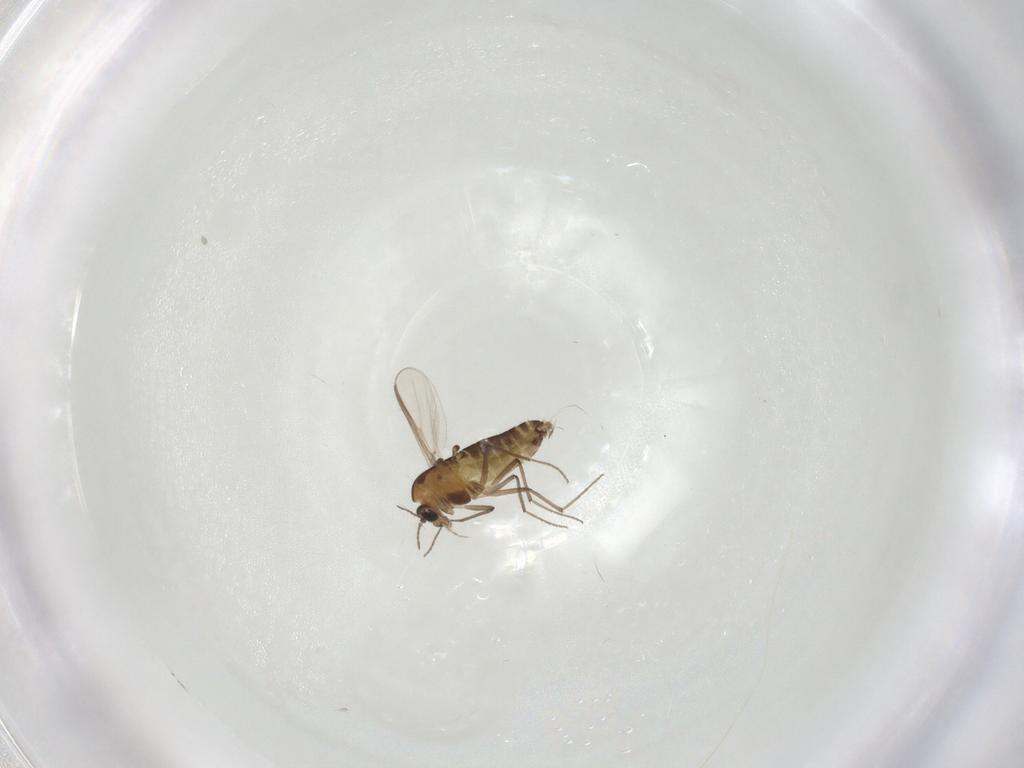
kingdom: Animalia
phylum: Arthropoda
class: Insecta
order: Diptera
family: Chironomidae
